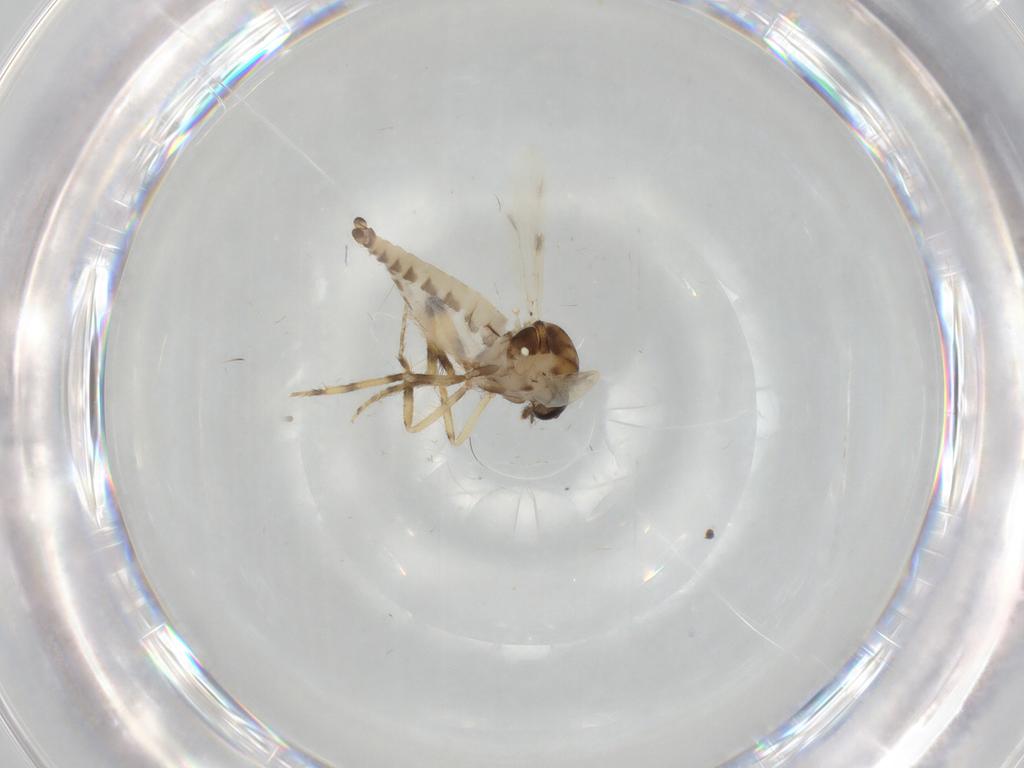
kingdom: Animalia
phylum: Arthropoda
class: Insecta
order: Diptera
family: Ceratopogonidae
